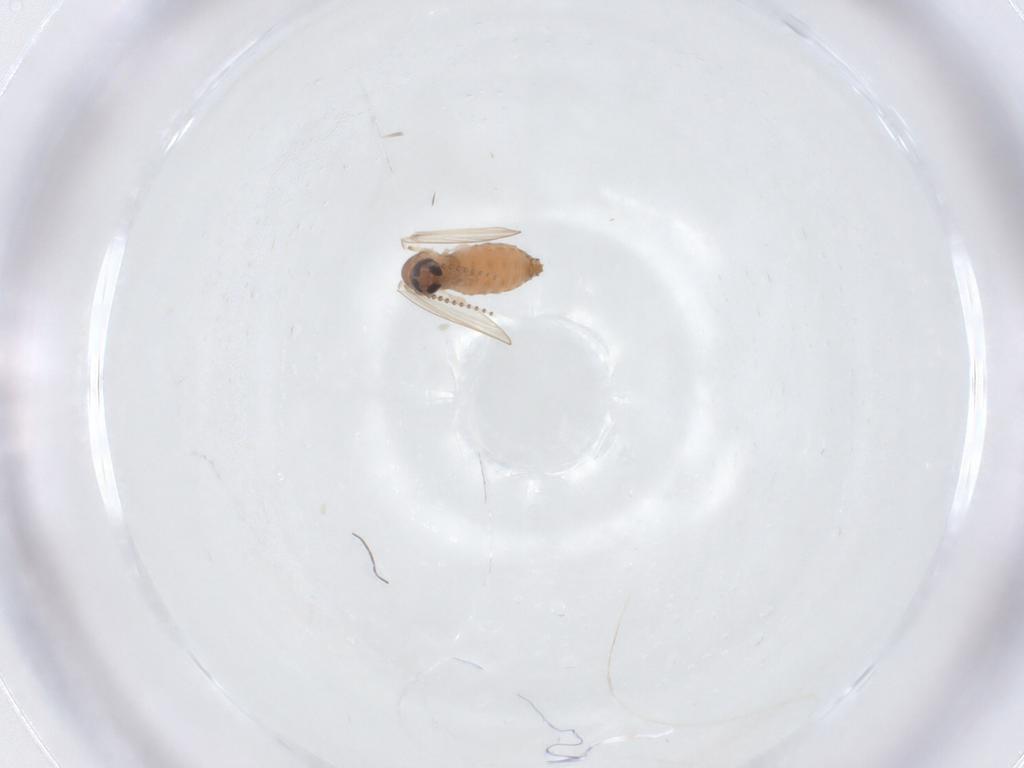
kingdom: Animalia
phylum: Arthropoda
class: Insecta
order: Diptera
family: Psychodidae
